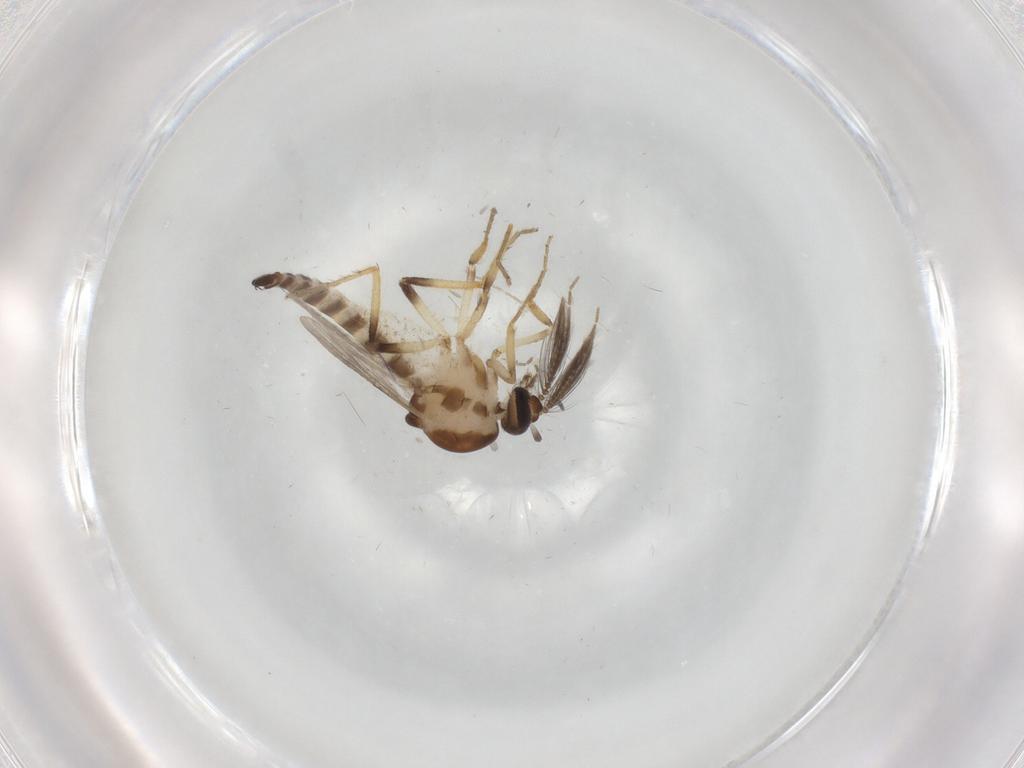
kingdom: Animalia
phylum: Arthropoda
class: Insecta
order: Diptera
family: Ceratopogonidae
